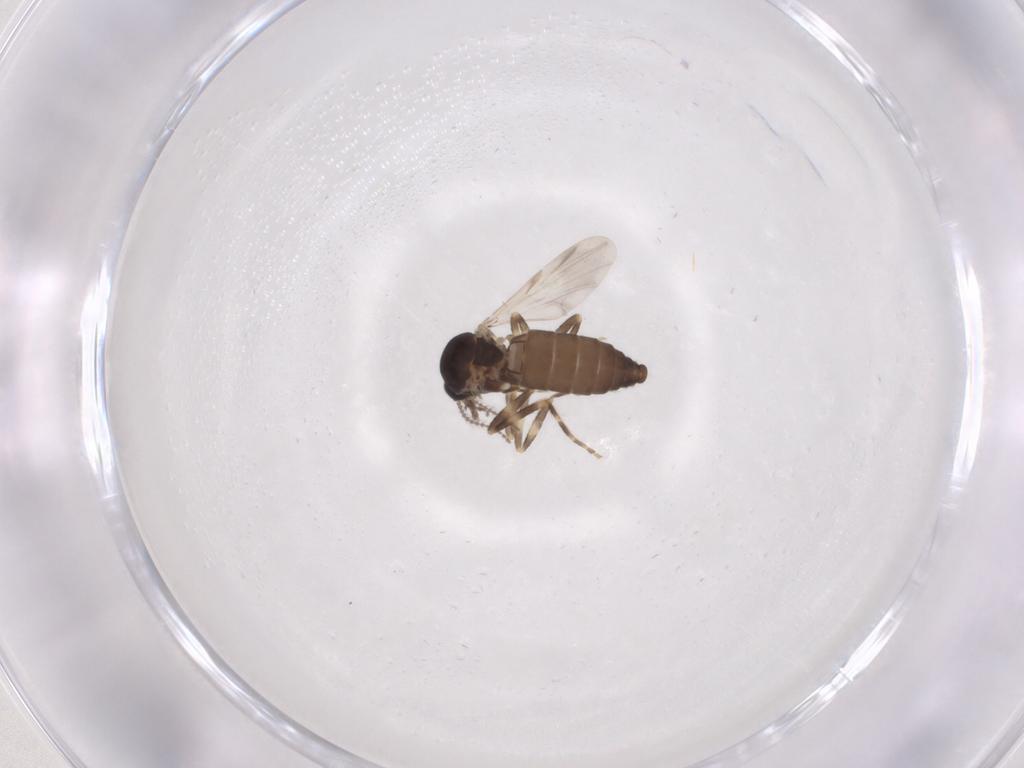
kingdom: Animalia
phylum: Arthropoda
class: Insecta
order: Diptera
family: Ceratopogonidae
